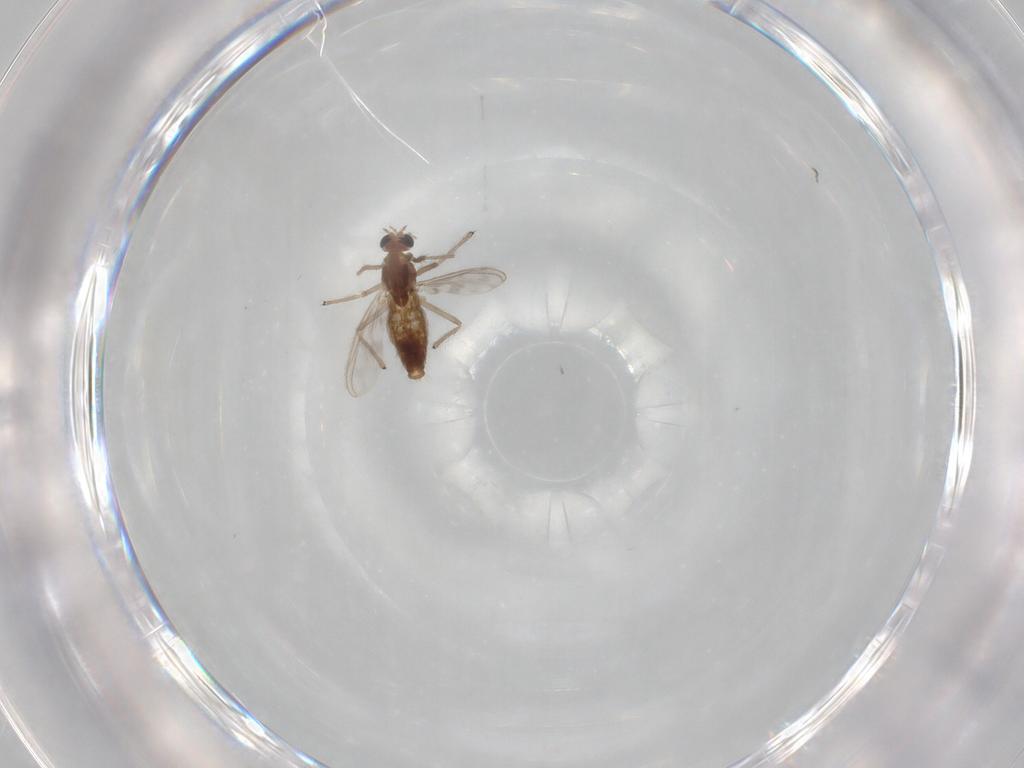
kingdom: Animalia
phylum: Arthropoda
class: Insecta
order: Diptera
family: Chironomidae
